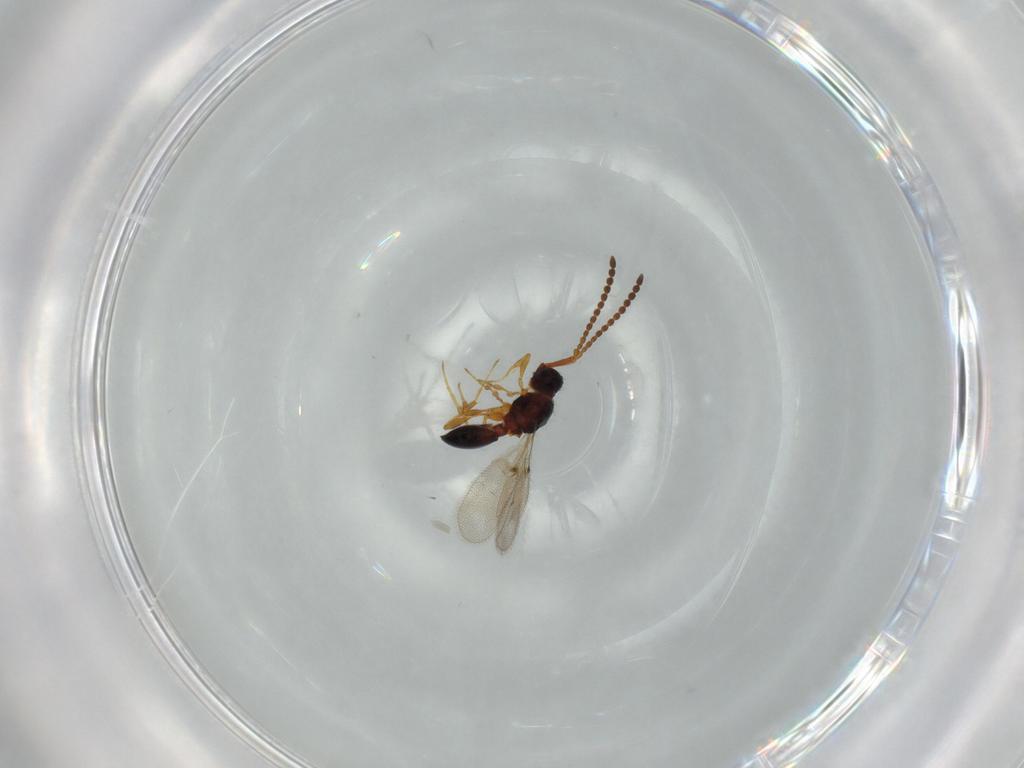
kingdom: Animalia
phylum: Arthropoda
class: Insecta
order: Hymenoptera
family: Diapriidae
